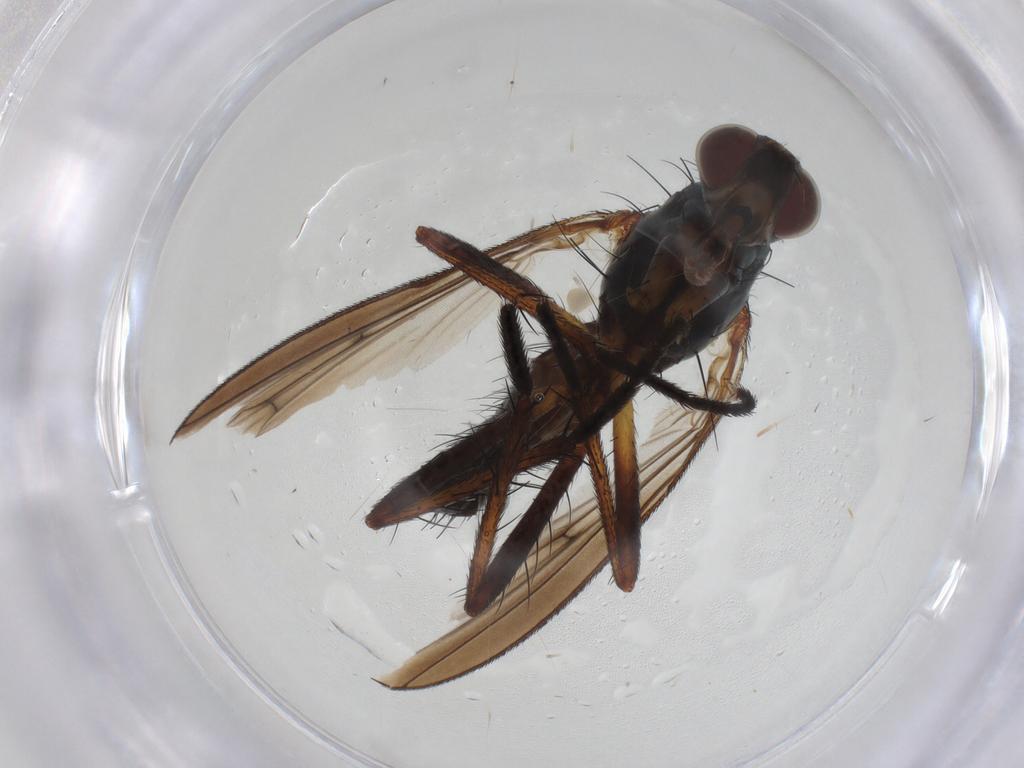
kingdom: Animalia
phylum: Arthropoda
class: Insecta
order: Diptera
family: Anthomyiidae
